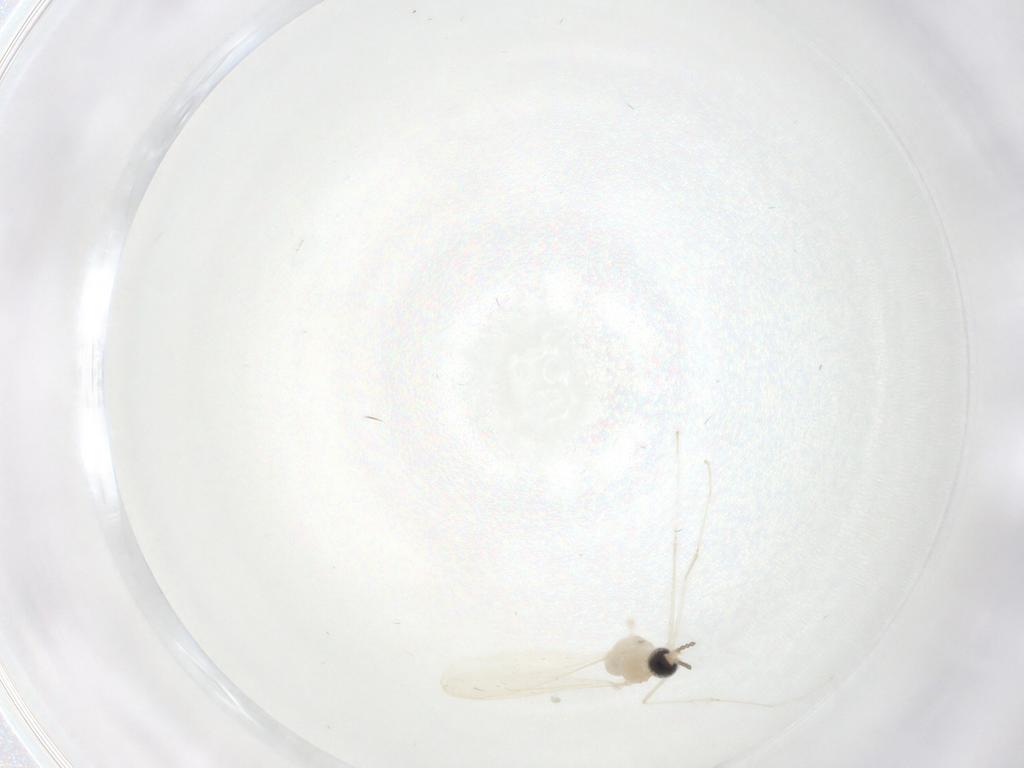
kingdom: Animalia
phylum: Arthropoda
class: Insecta
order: Diptera
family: Cecidomyiidae
